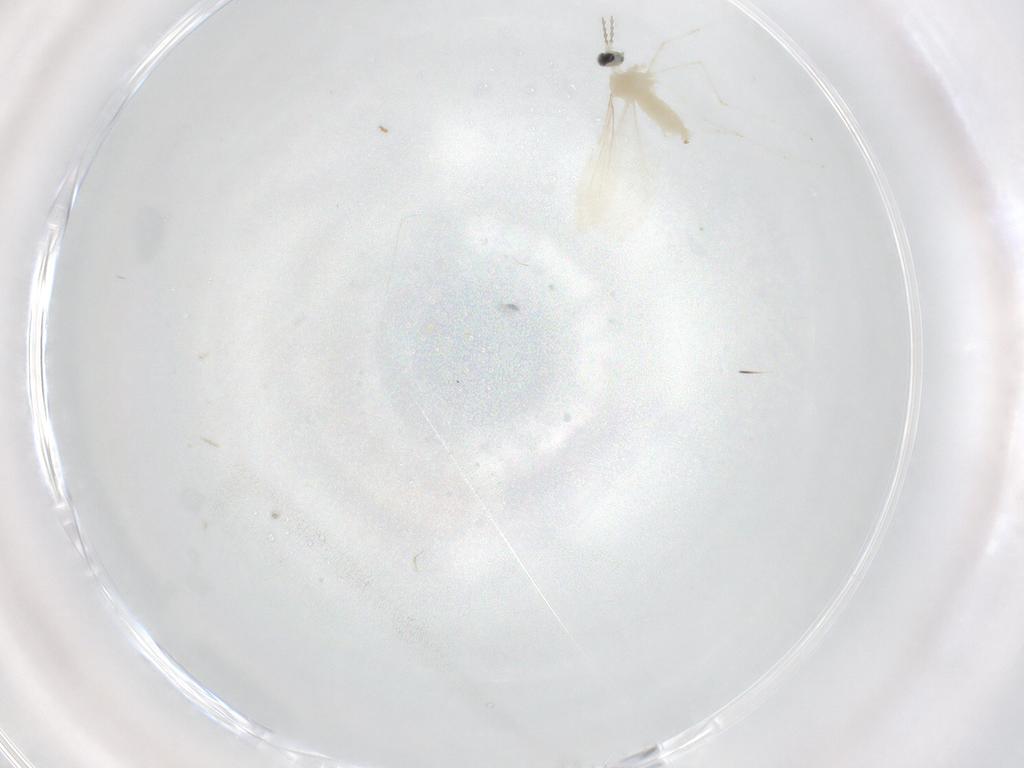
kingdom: Animalia
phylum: Arthropoda
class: Insecta
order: Diptera
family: Cecidomyiidae
